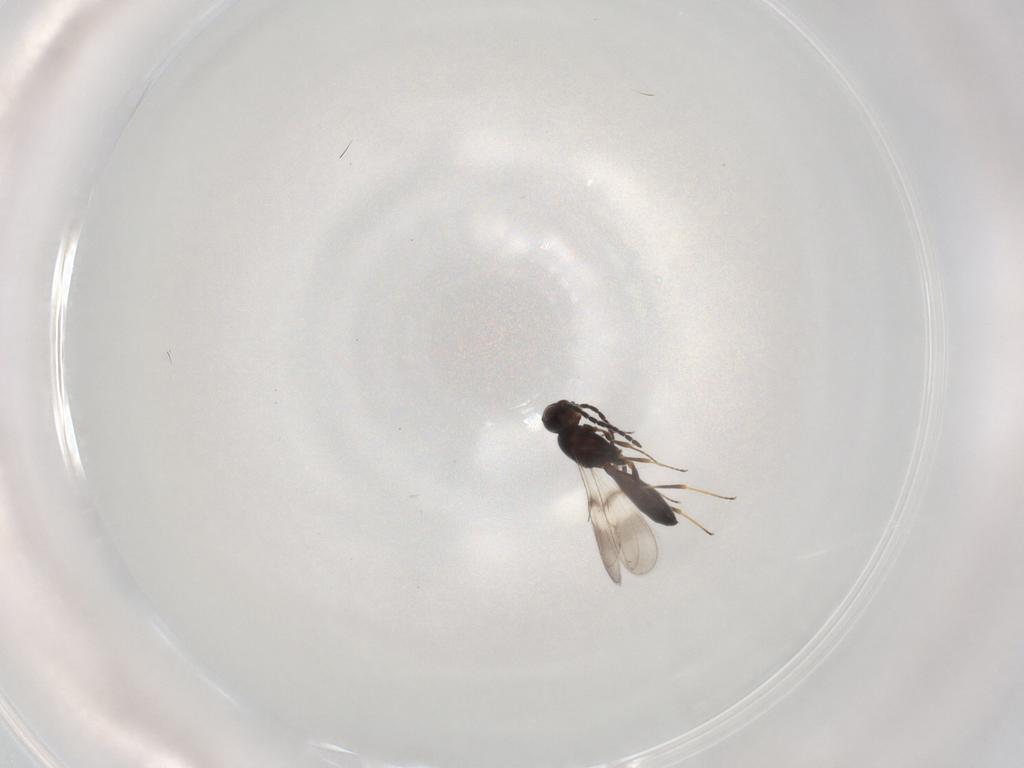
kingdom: Animalia
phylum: Arthropoda
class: Insecta
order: Hymenoptera
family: Scelionidae
